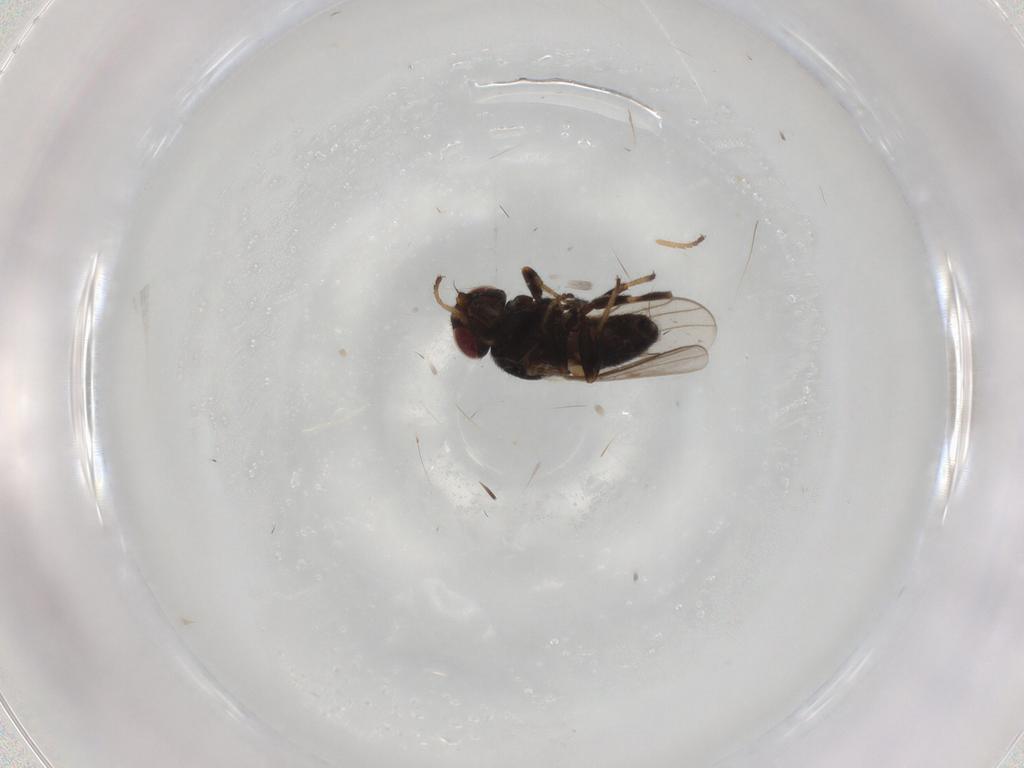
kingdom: Animalia
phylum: Arthropoda
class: Insecta
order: Diptera
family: Chloropidae
